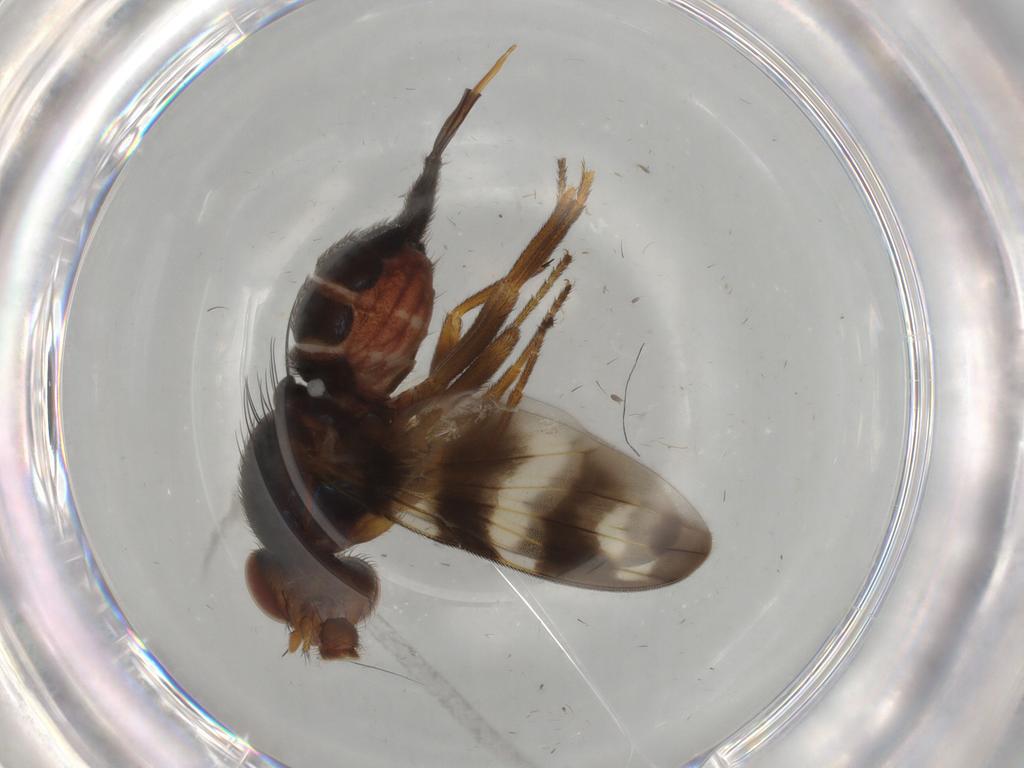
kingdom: Animalia
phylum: Arthropoda
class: Insecta
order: Diptera
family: Ulidiidae
